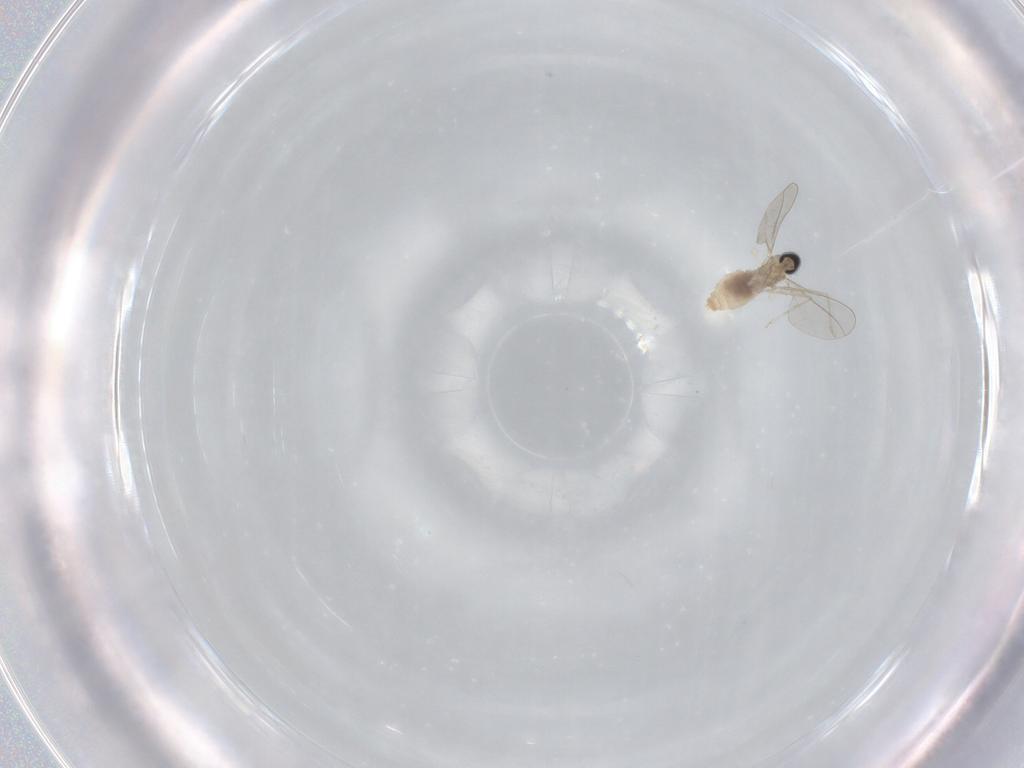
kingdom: Animalia
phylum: Arthropoda
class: Insecta
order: Diptera
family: Cecidomyiidae
